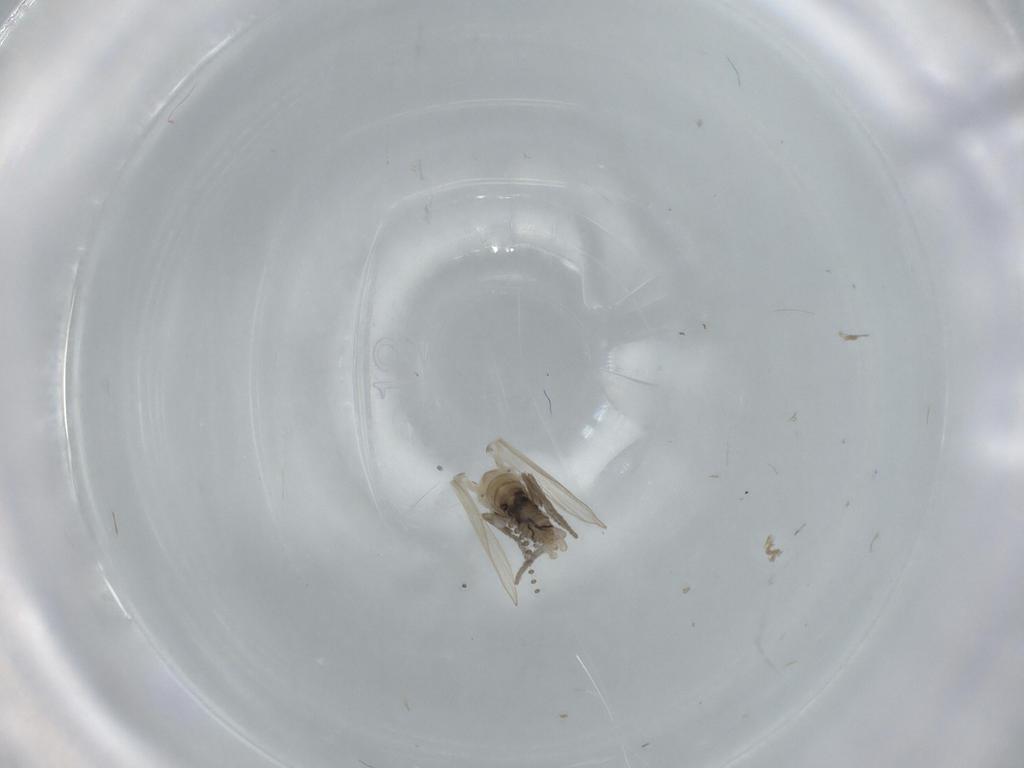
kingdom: Animalia
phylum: Arthropoda
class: Insecta
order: Diptera
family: Psychodidae
